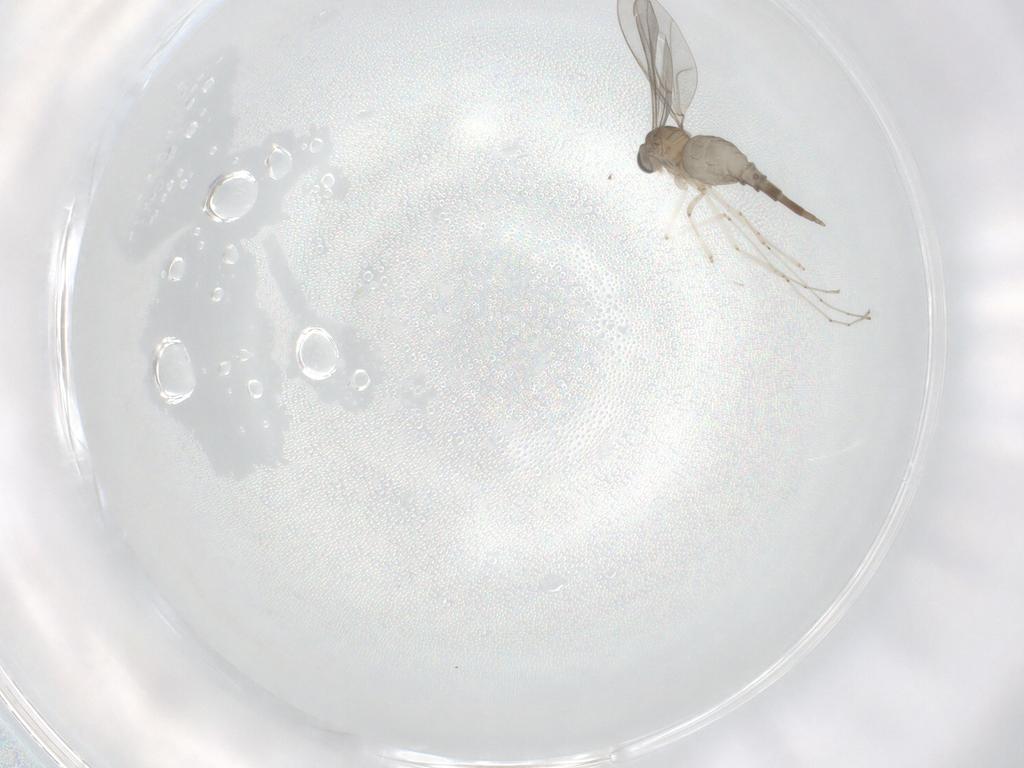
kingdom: Animalia
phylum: Arthropoda
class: Insecta
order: Diptera
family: Cecidomyiidae
